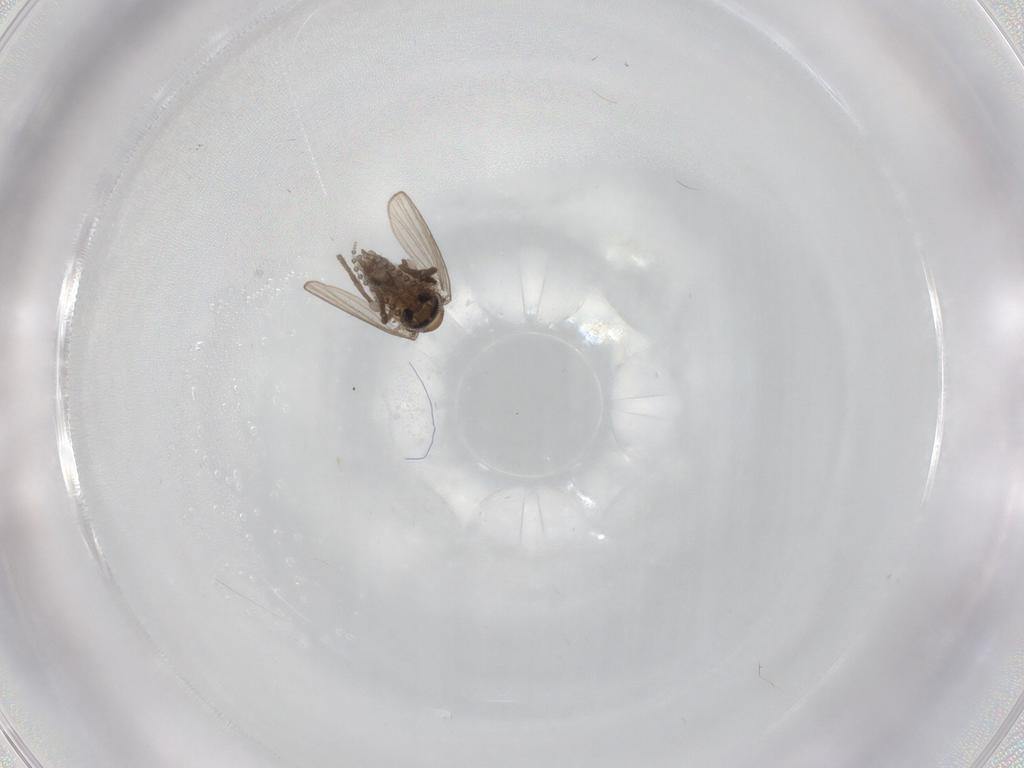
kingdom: Animalia
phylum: Arthropoda
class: Insecta
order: Diptera
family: Psychodidae
